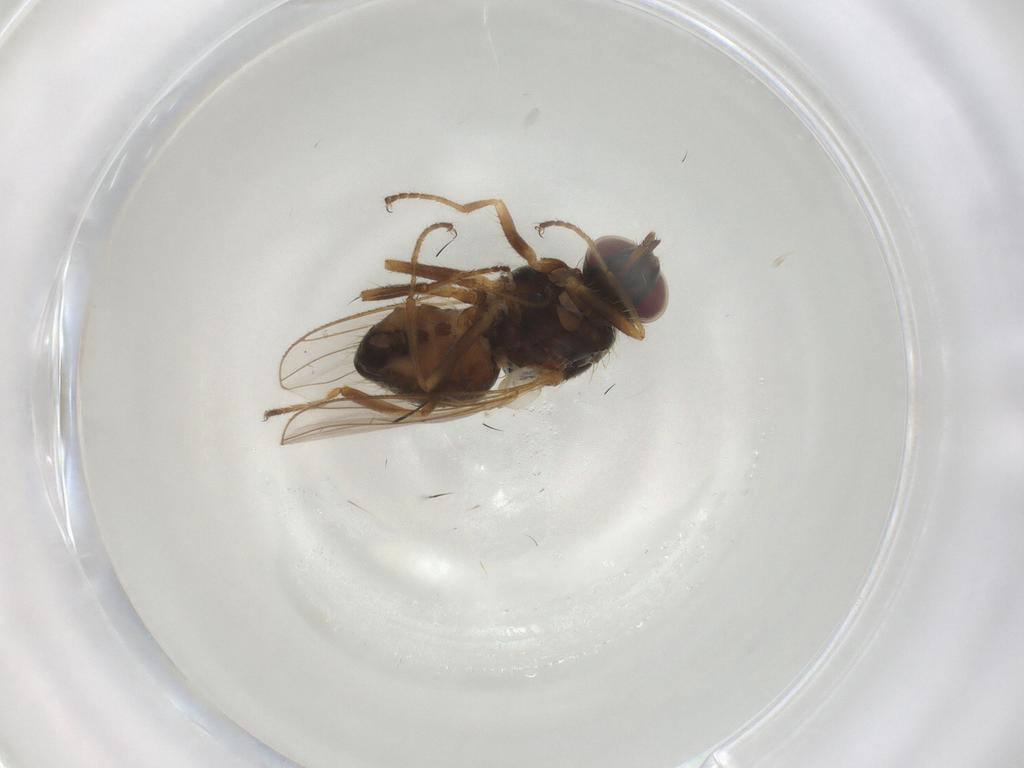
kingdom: Animalia
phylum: Arthropoda
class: Insecta
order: Diptera
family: Muscidae
